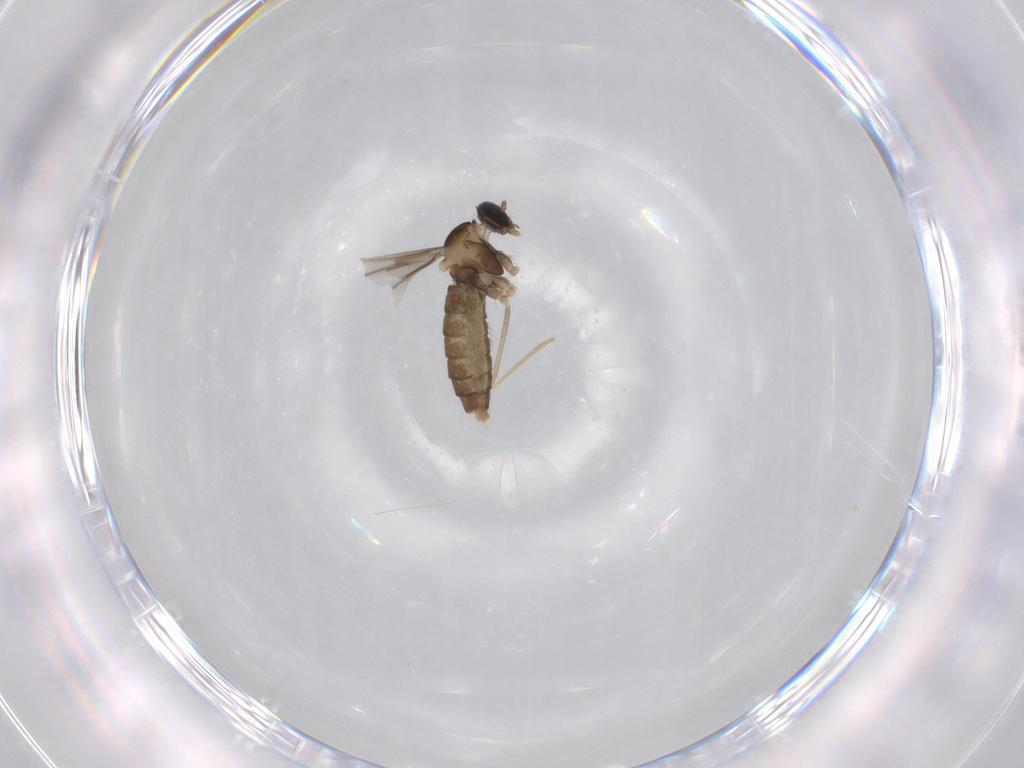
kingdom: Animalia
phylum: Arthropoda
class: Insecta
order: Diptera
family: Cecidomyiidae
